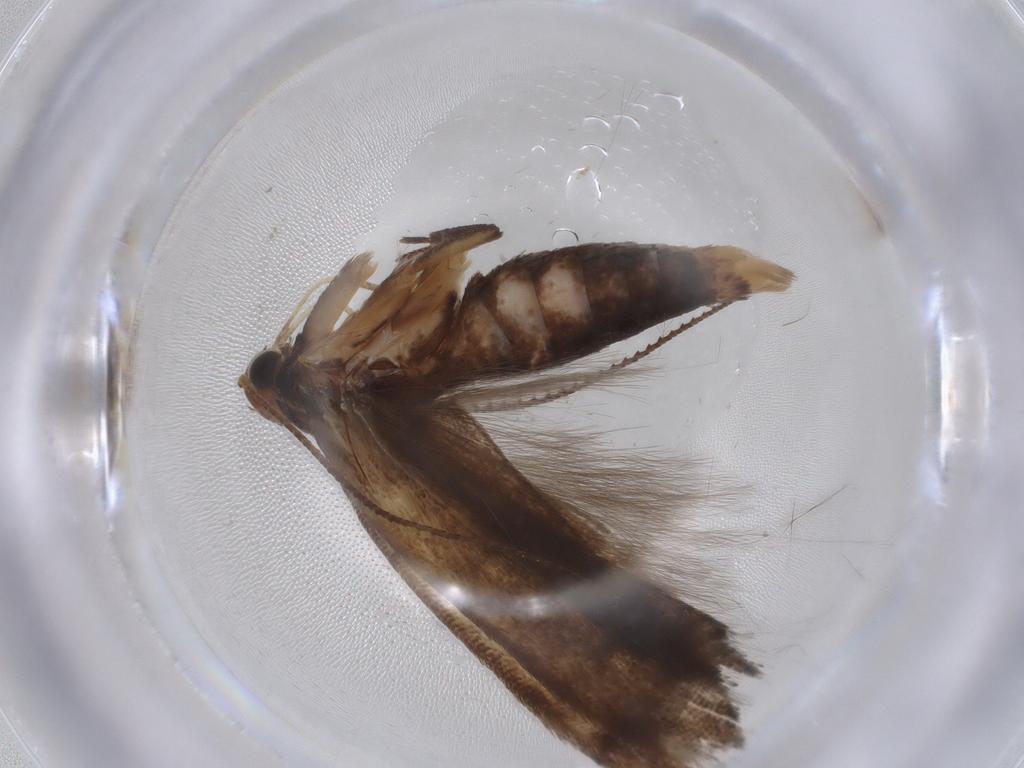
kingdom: Animalia
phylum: Arthropoda
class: Insecta
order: Lepidoptera
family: Gelechiidae
